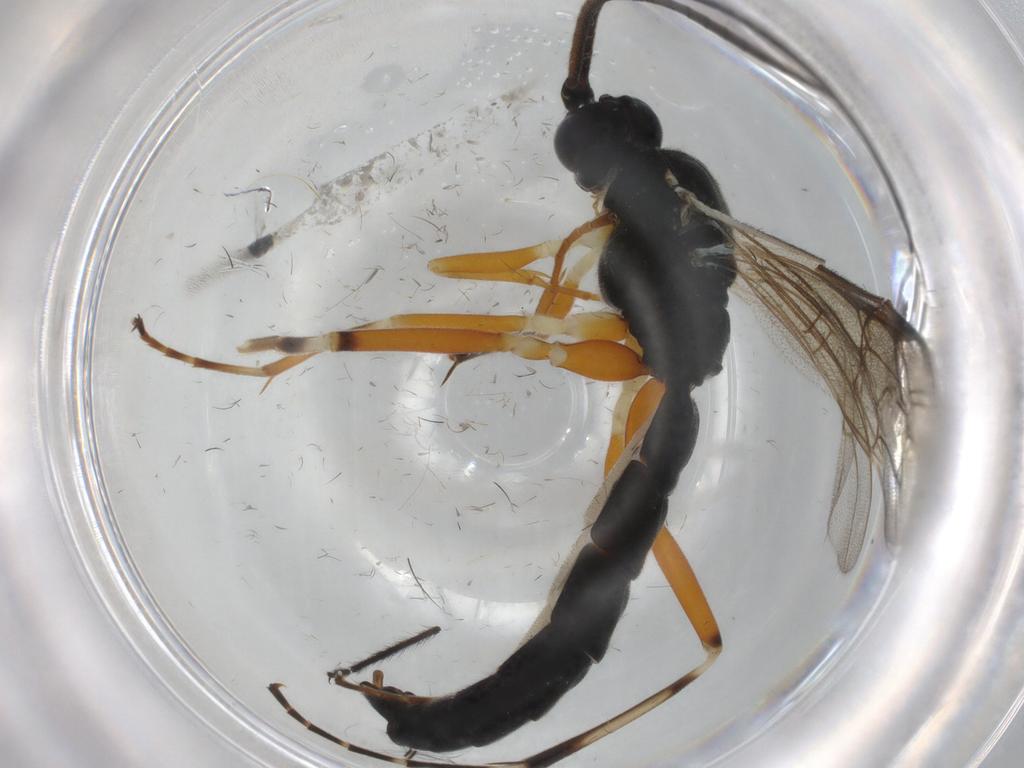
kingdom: Animalia
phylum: Arthropoda
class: Insecta
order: Hymenoptera
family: Ichneumonidae
